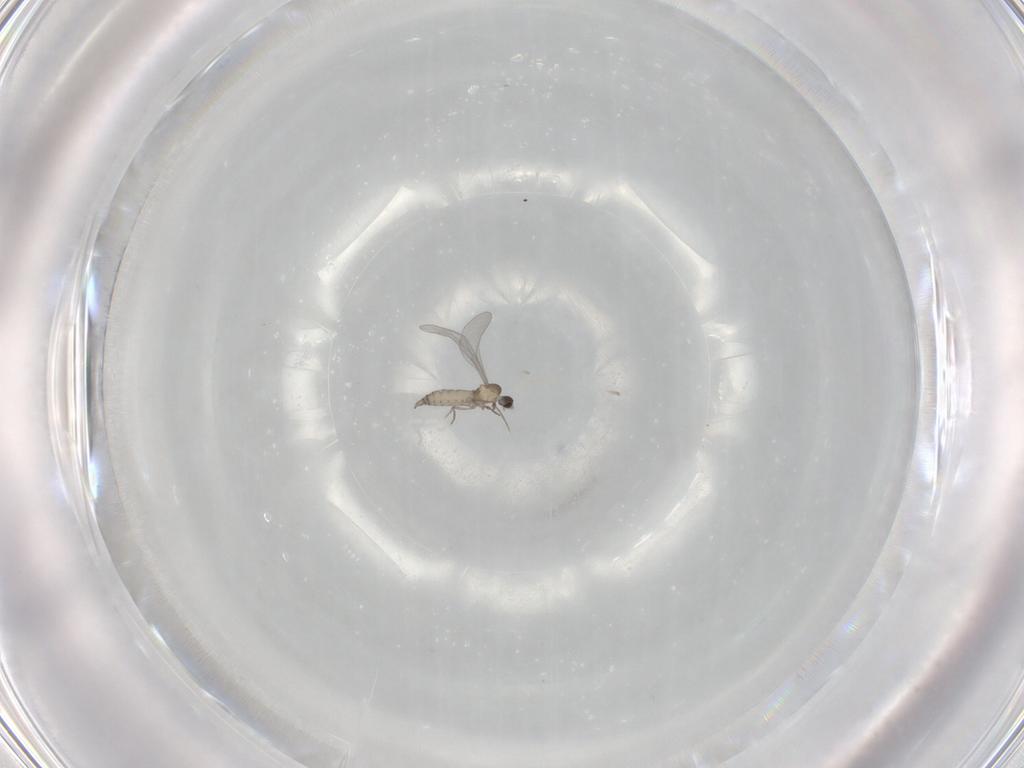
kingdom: Animalia
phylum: Arthropoda
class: Insecta
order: Diptera
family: Cecidomyiidae
